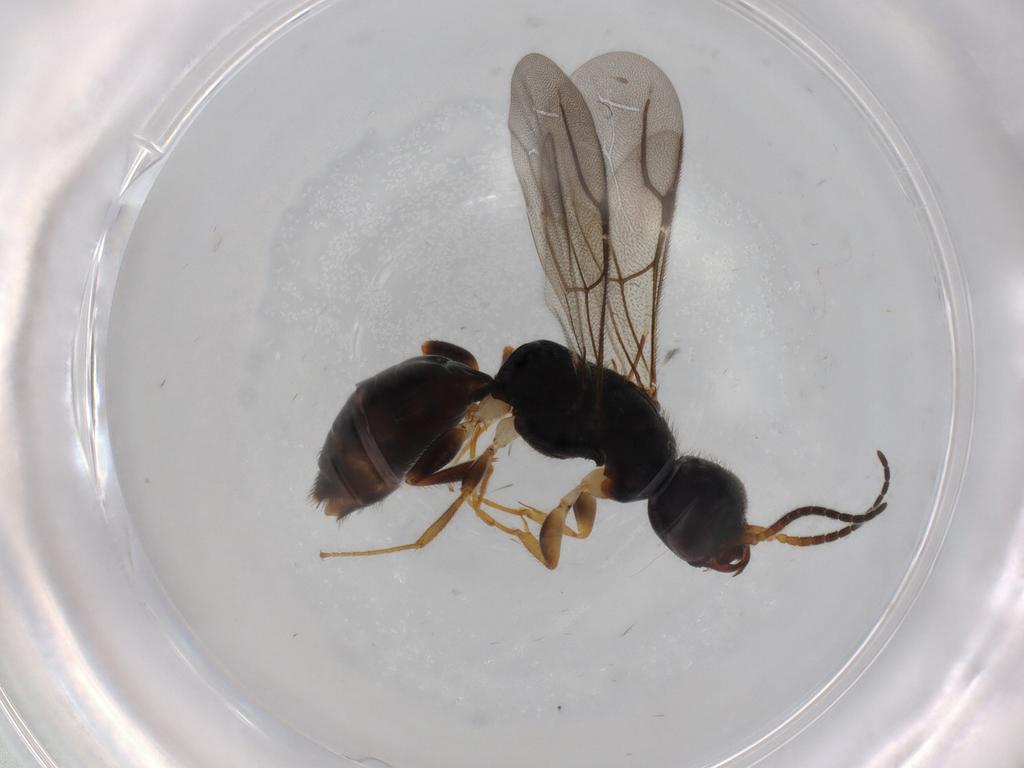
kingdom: Animalia
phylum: Arthropoda
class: Insecta
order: Hymenoptera
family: Bethylidae
